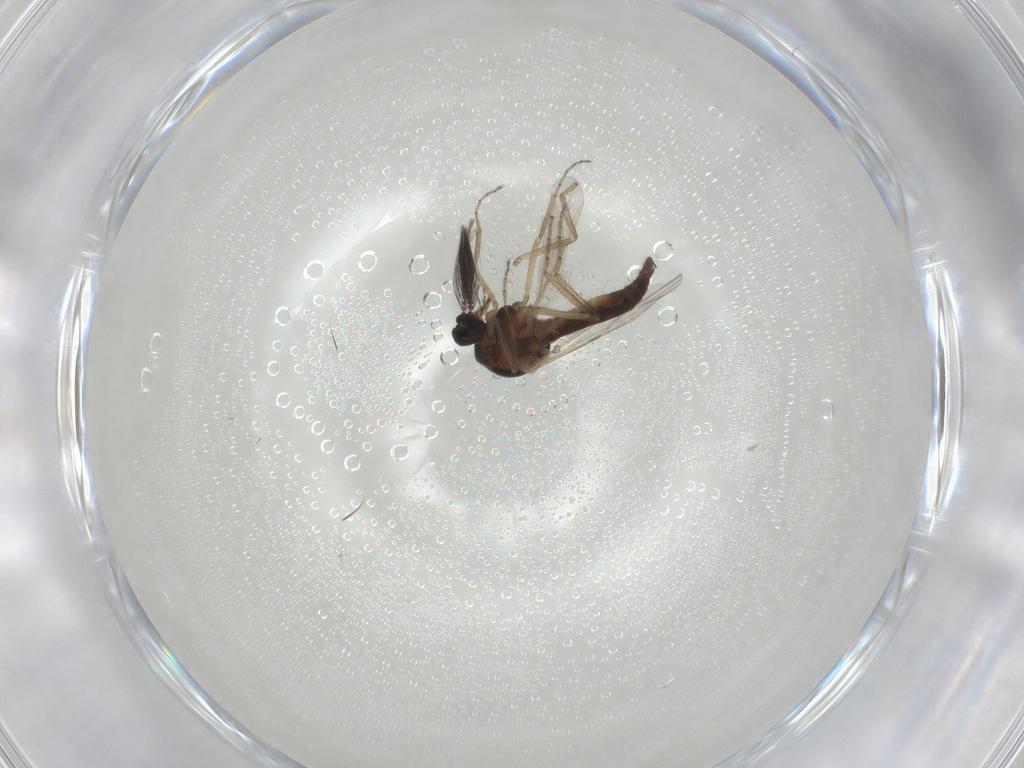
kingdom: Animalia
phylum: Arthropoda
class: Insecta
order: Diptera
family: Ceratopogonidae
